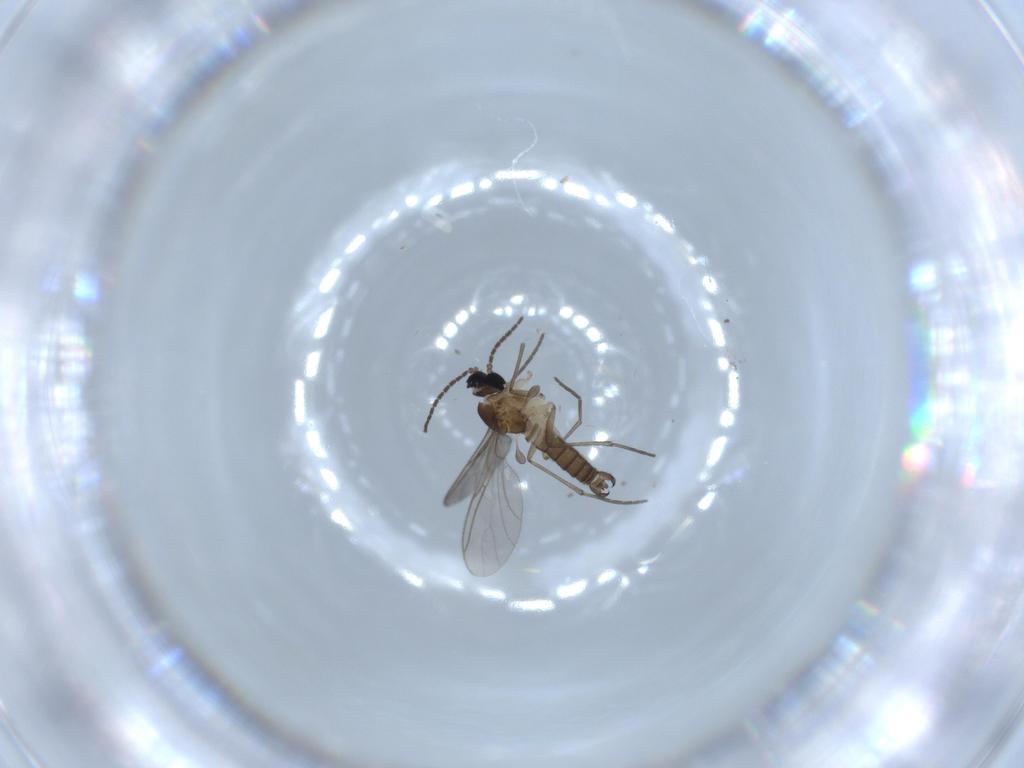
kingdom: Animalia
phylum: Arthropoda
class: Insecta
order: Diptera
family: Sciaridae
